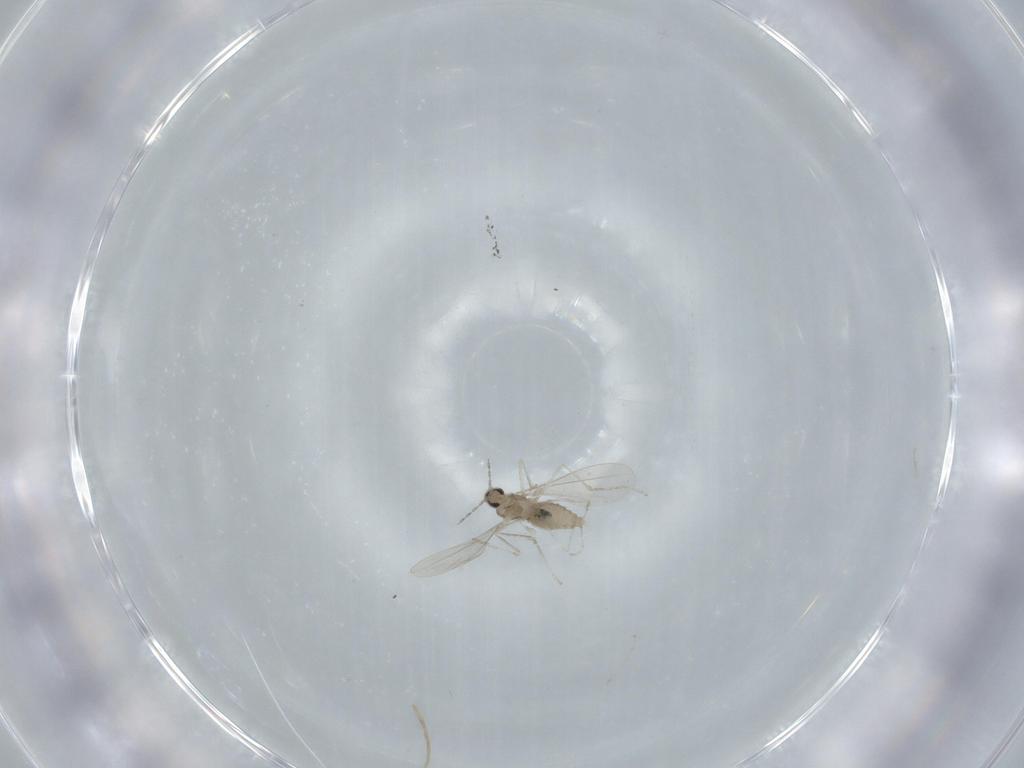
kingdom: Animalia
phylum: Arthropoda
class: Insecta
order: Diptera
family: Cecidomyiidae
